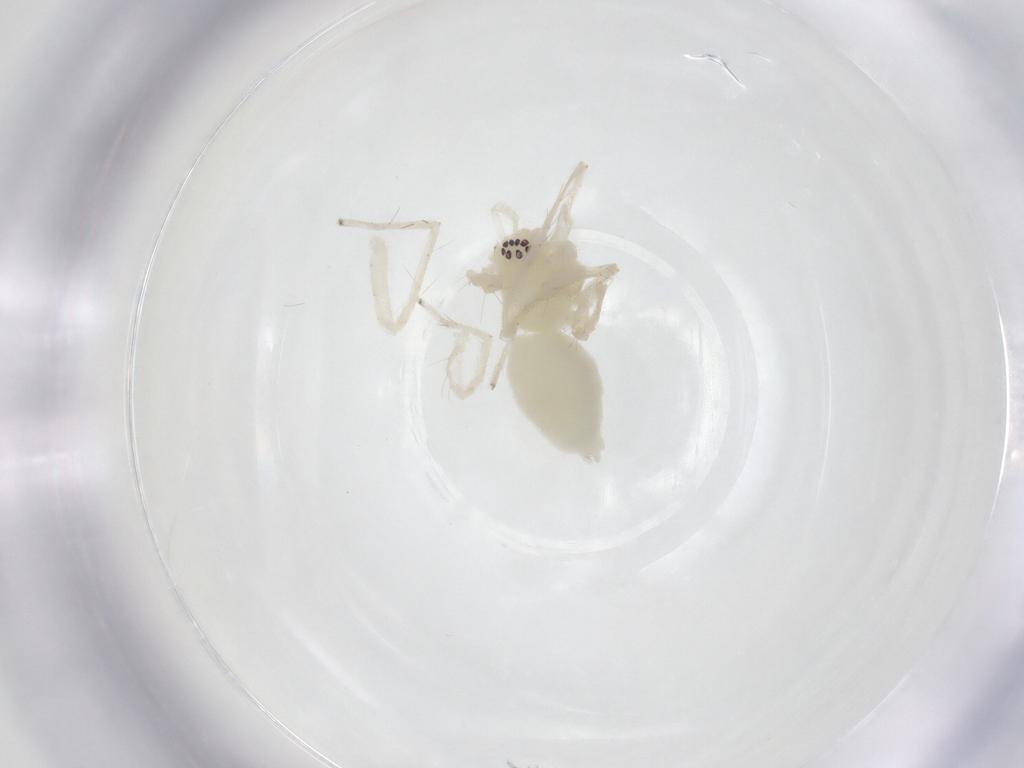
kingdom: Animalia
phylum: Arthropoda
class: Arachnida
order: Araneae
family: Anyphaenidae
